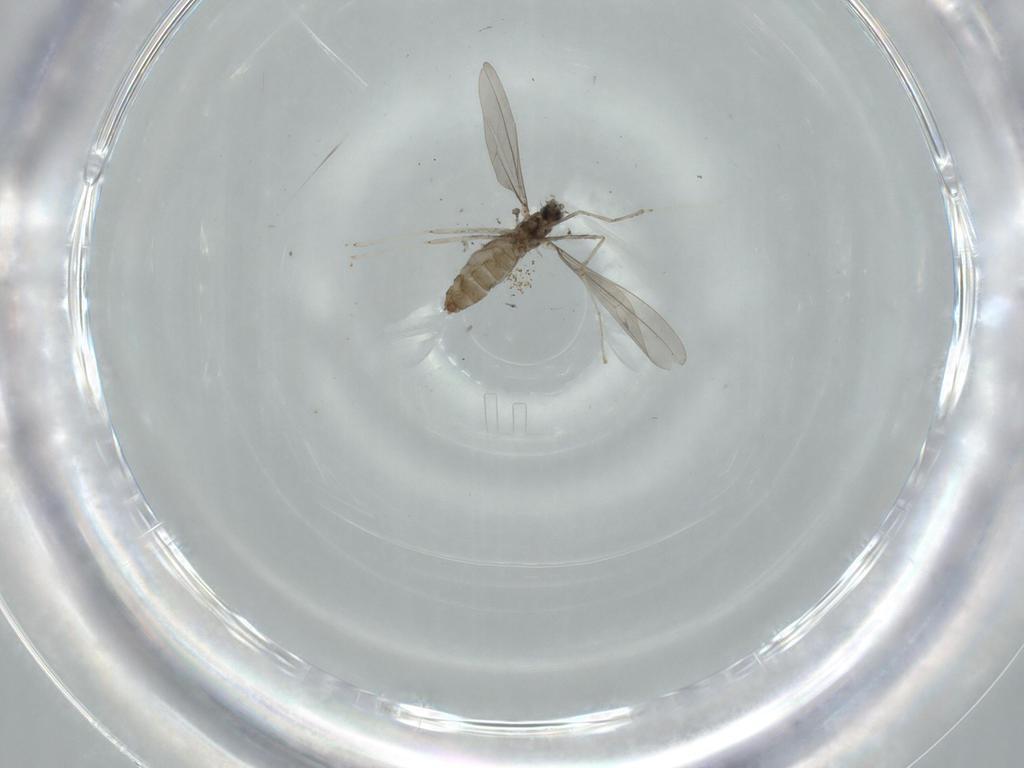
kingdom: Animalia
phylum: Arthropoda
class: Insecta
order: Diptera
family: Cecidomyiidae
